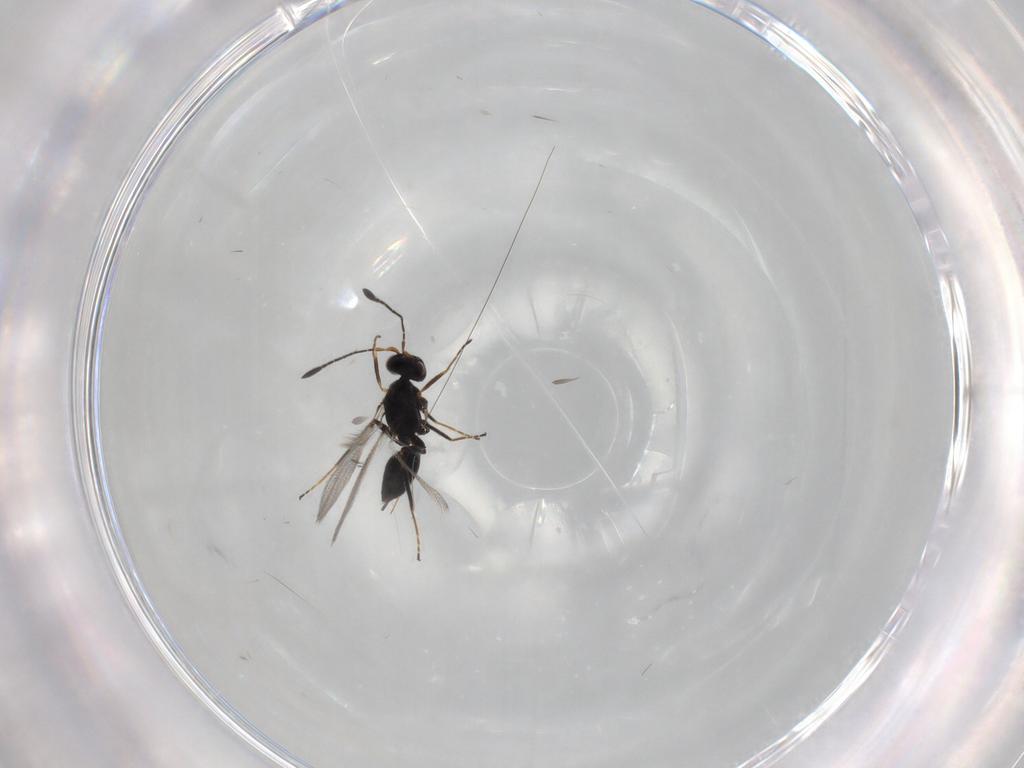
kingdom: Animalia
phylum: Arthropoda
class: Insecta
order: Hymenoptera
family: Mymaridae
